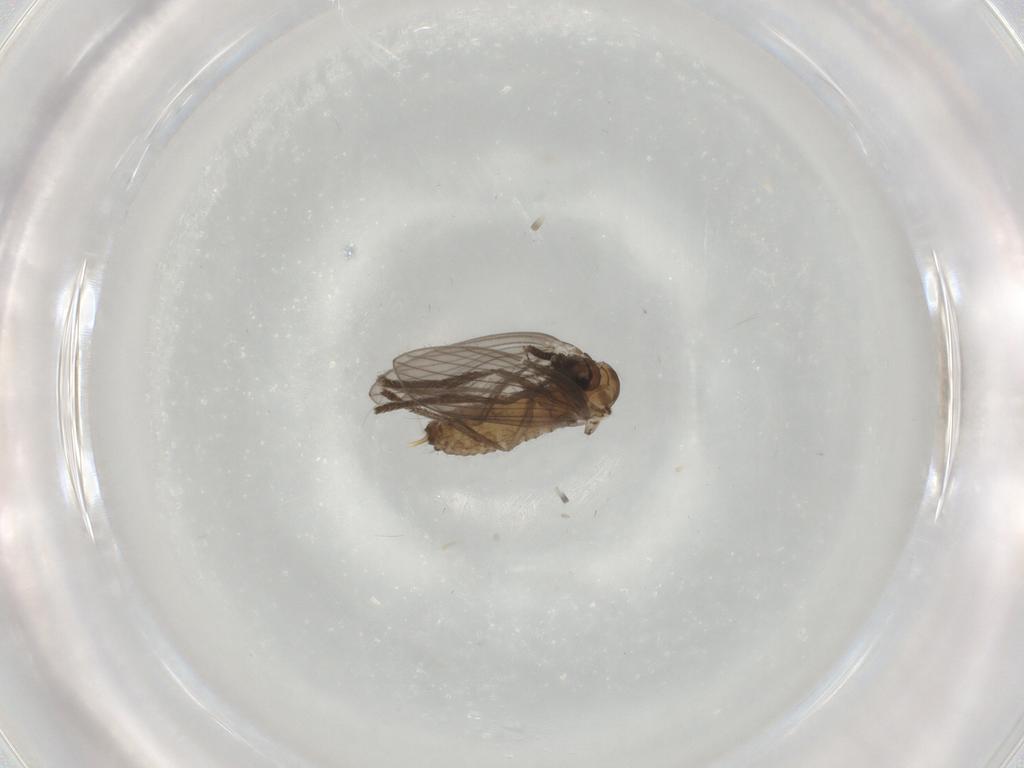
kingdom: Animalia
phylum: Arthropoda
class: Insecta
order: Diptera
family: Psychodidae
